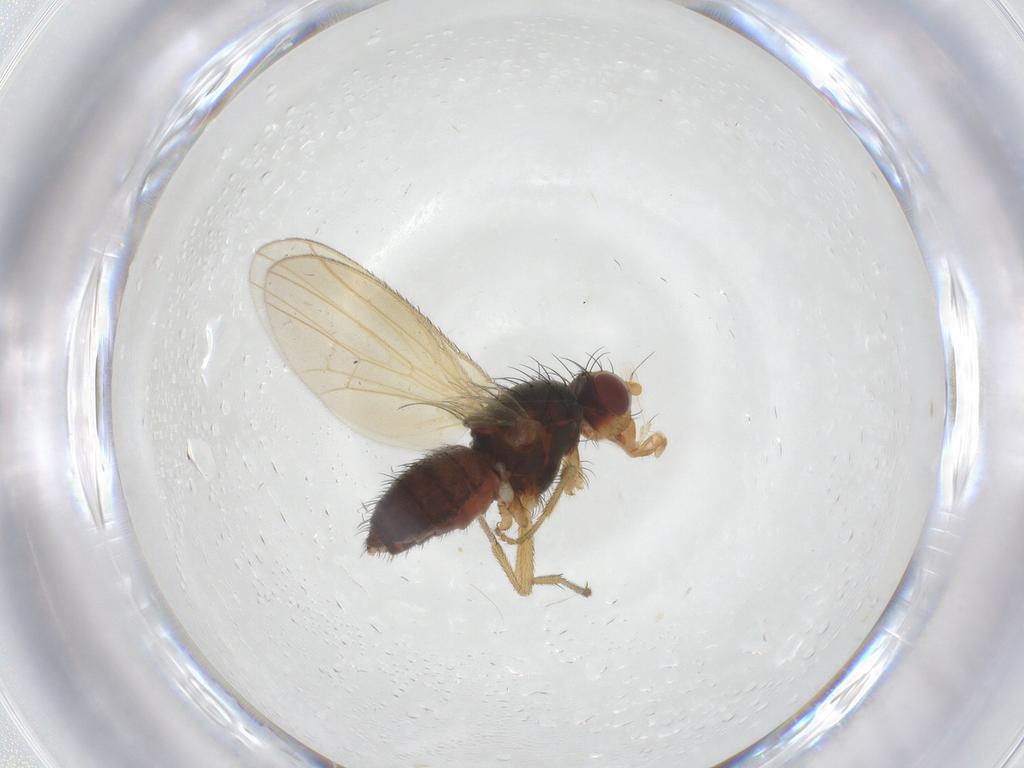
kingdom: Animalia
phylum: Arthropoda
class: Insecta
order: Diptera
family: Heleomyzidae
